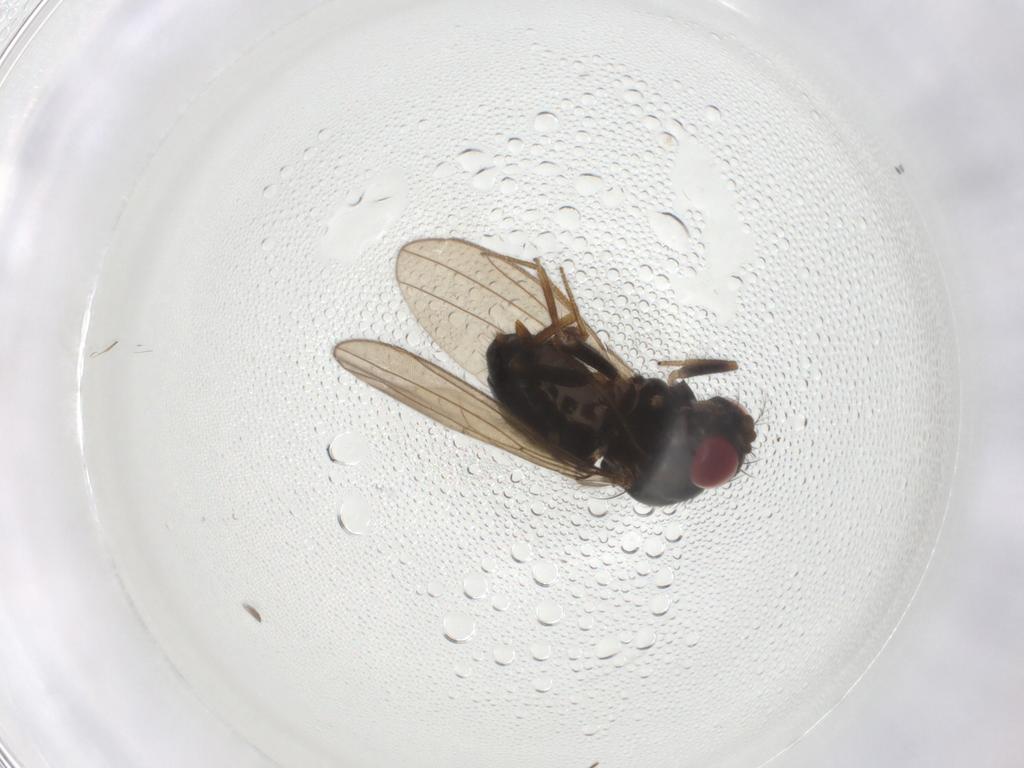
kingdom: Animalia
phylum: Arthropoda
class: Insecta
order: Diptera
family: Drosophilidae
